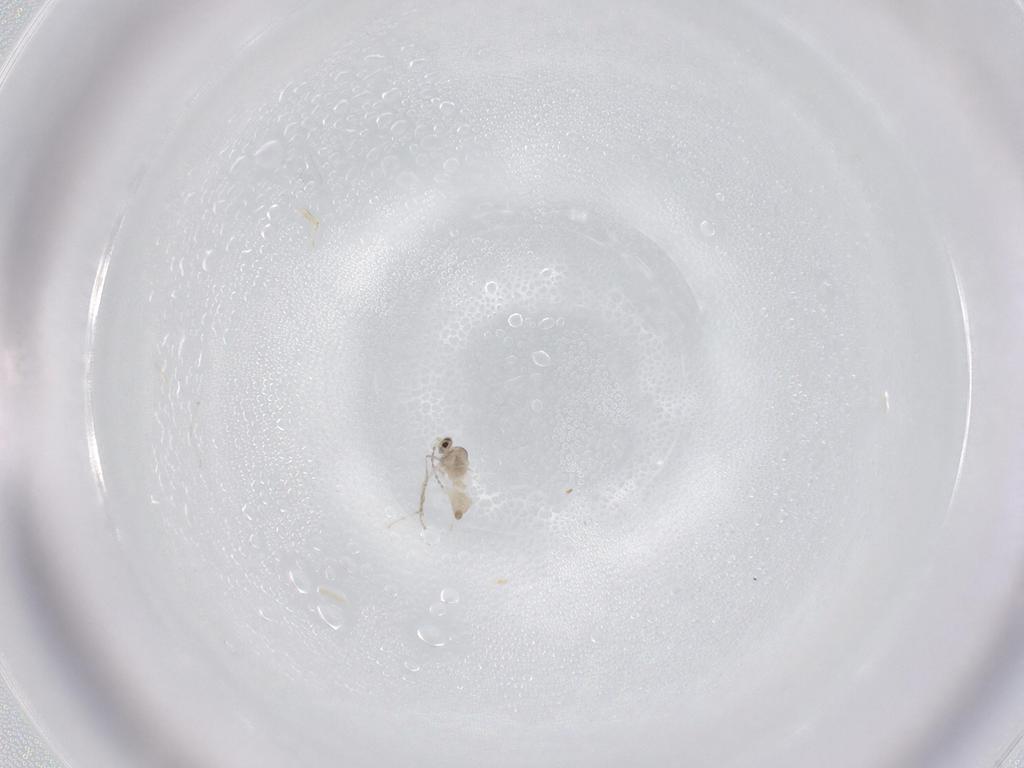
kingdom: Animalia
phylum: Arthropoda
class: Insecta
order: Diptera
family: Cecidomyiidae
